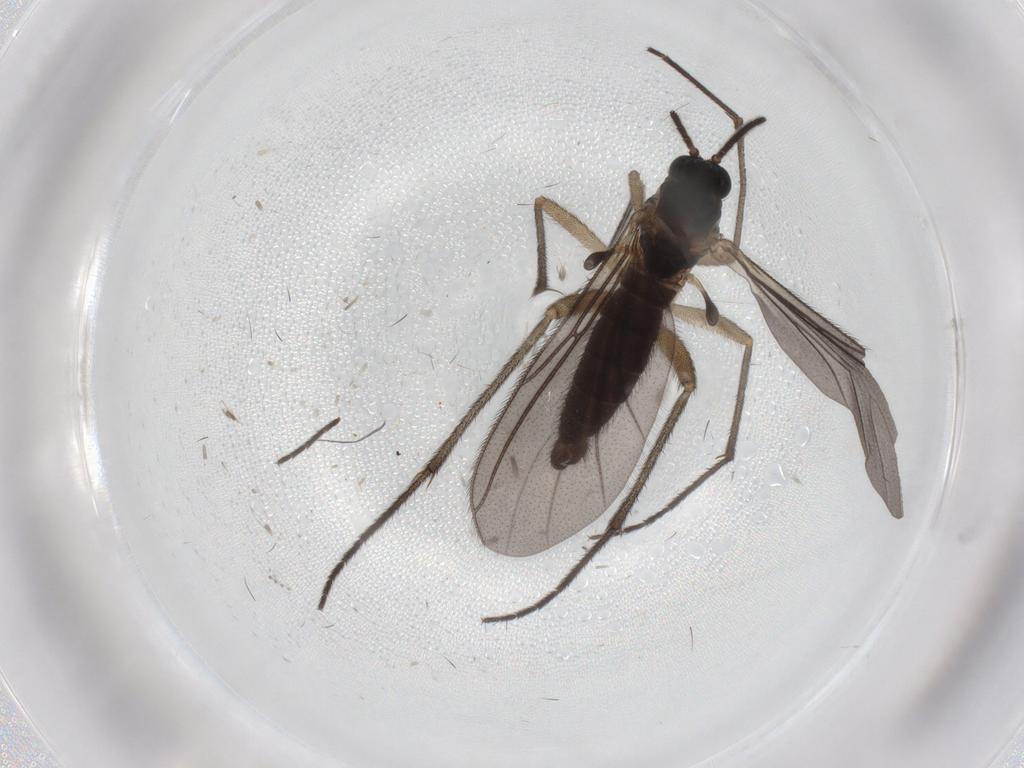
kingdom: Animalia
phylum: Arthropoda
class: Insecta
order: Diptera
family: Sciaridae
